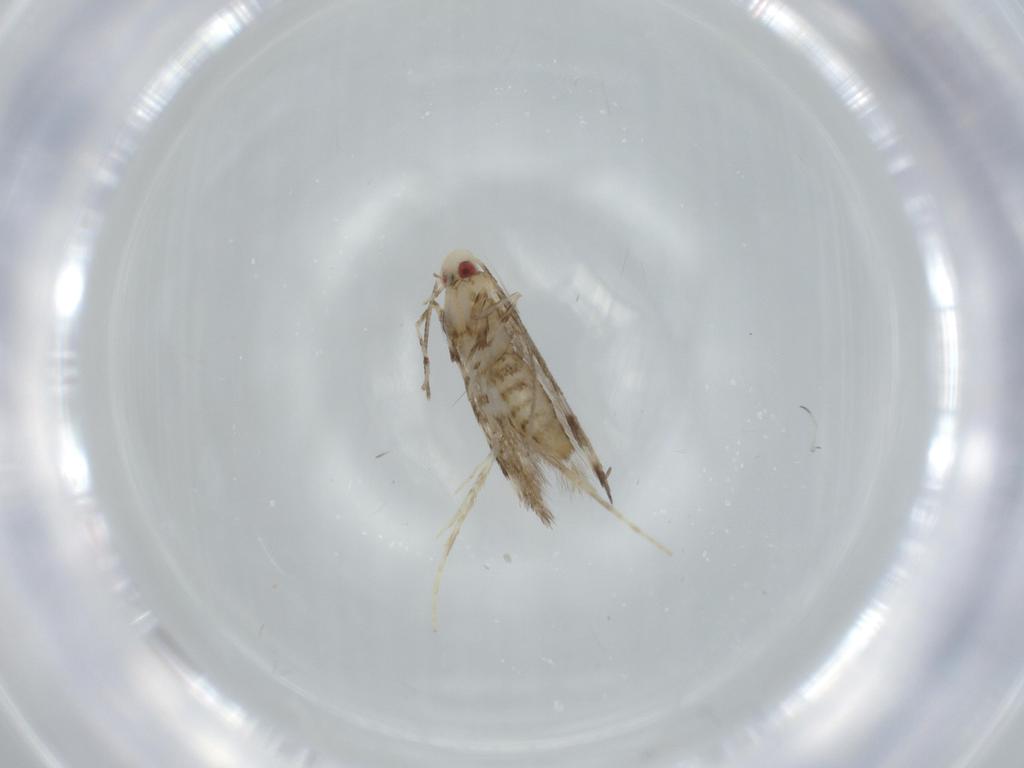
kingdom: Animalia
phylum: Arthropoda
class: Insecta
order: Lepidoptera
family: Gracillariidae
